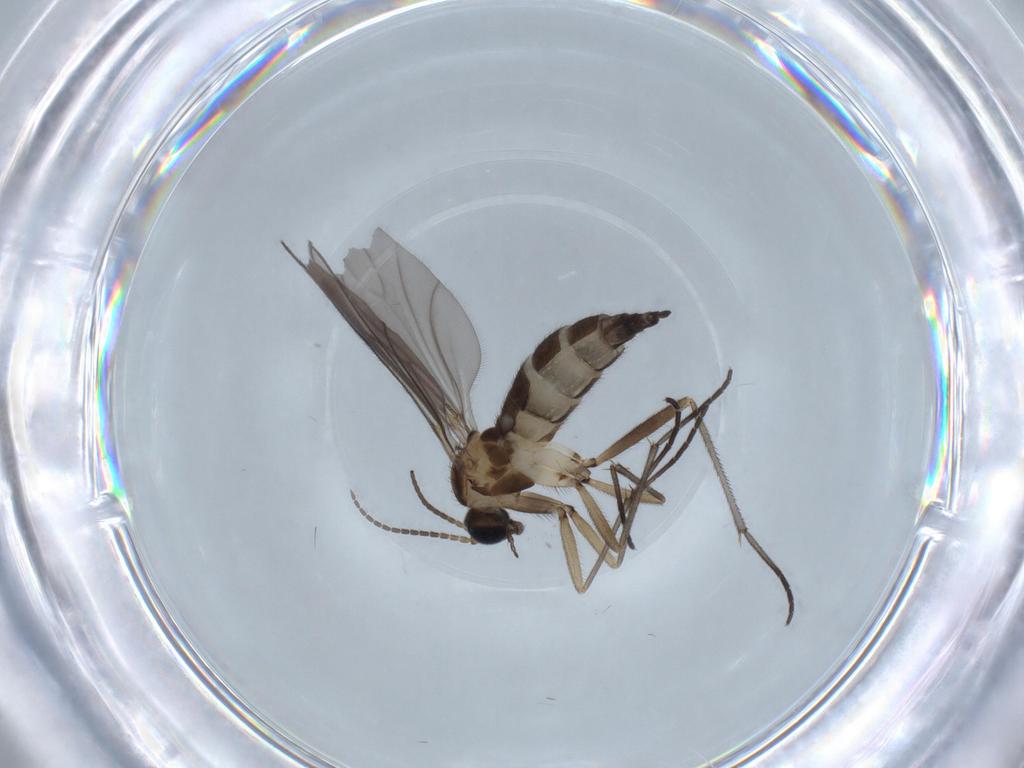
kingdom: Animalia
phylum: Arthropoda
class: Insecta
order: Diptera
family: Sciaridae
